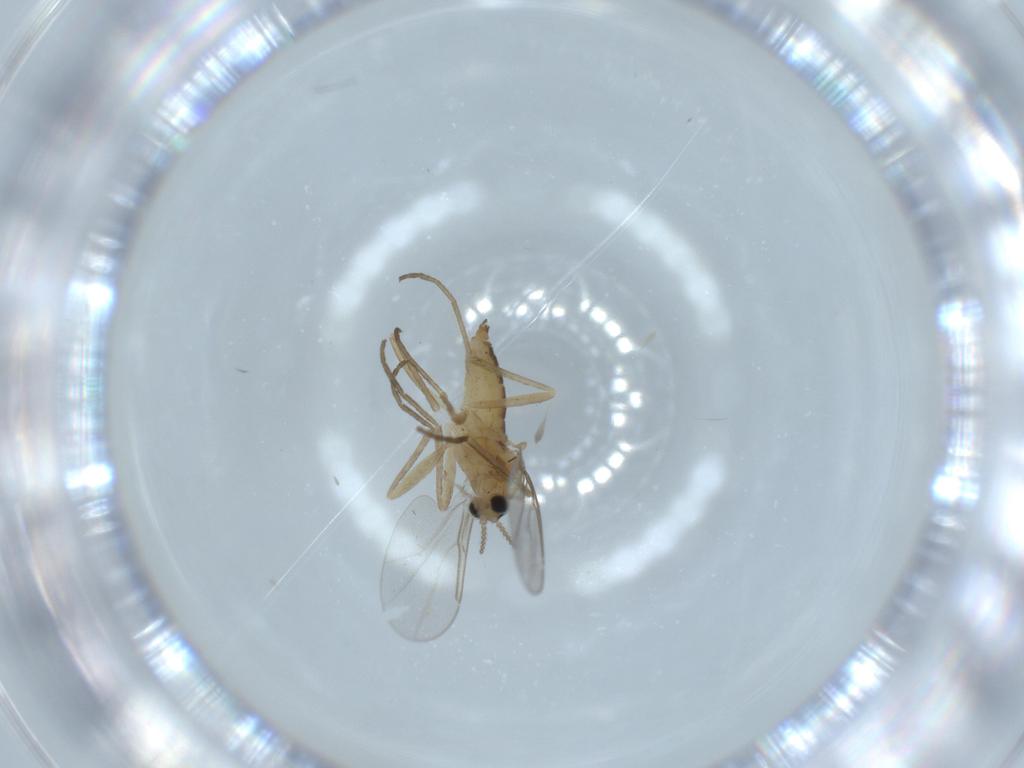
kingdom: Animalia
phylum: Arthropoda
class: Insecta
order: Diptera
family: Cecidomyiidae
